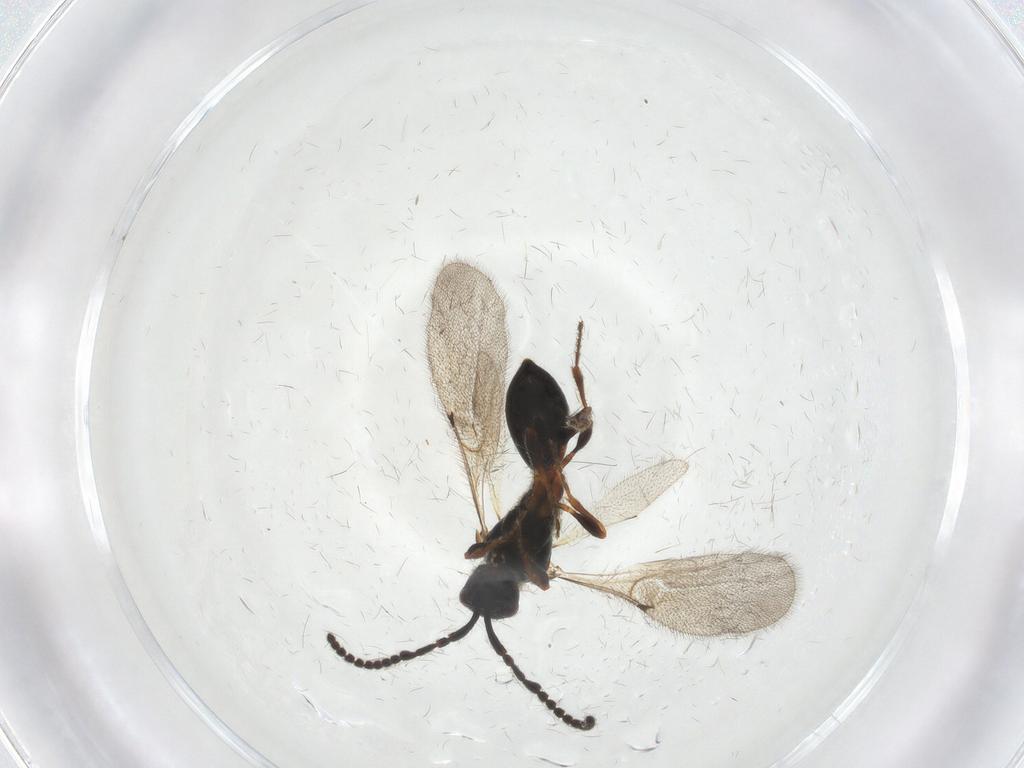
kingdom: Animalia
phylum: Arthropoda
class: Insecta
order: Hymenoptera
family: Diapriidae
